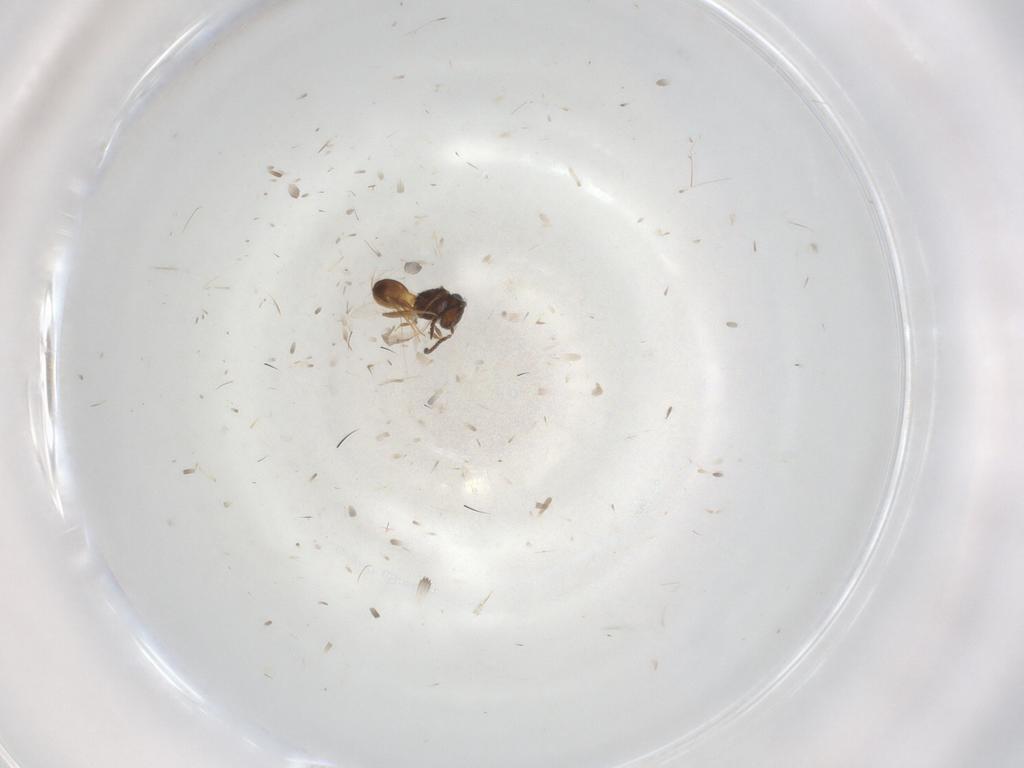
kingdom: Animalia
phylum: Arthropoda
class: Insecta
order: Hymenoptera
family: Scelionidae
